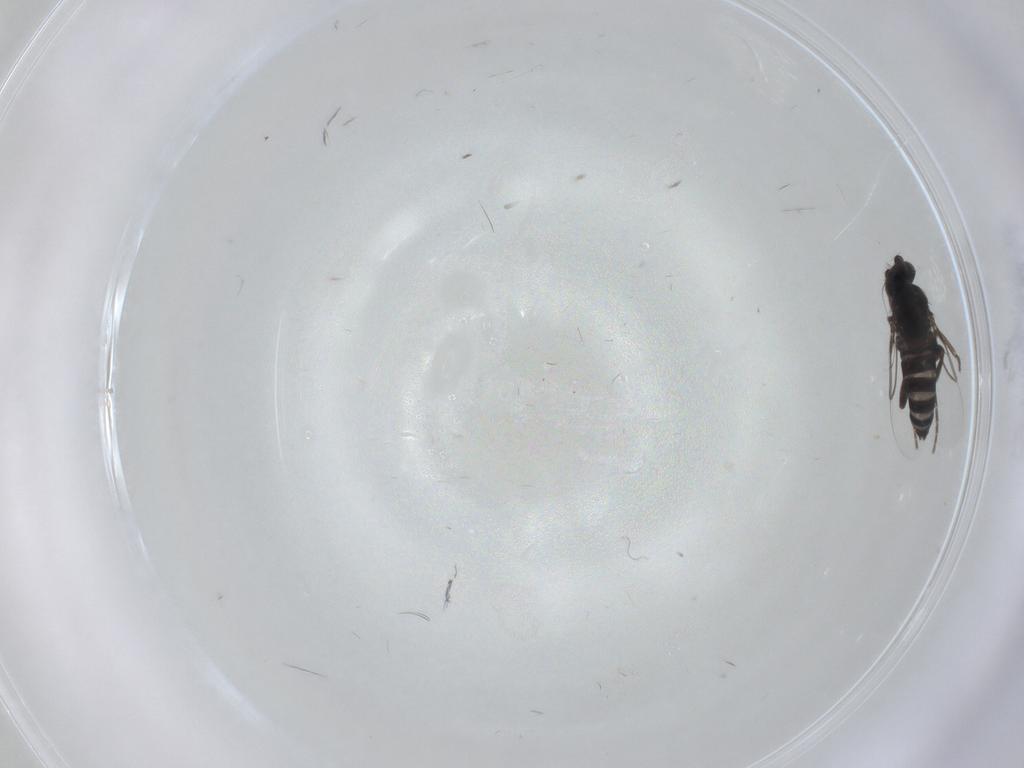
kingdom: Animalia
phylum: Arthropoda
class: Insecta
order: Diptera
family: Phoridae
